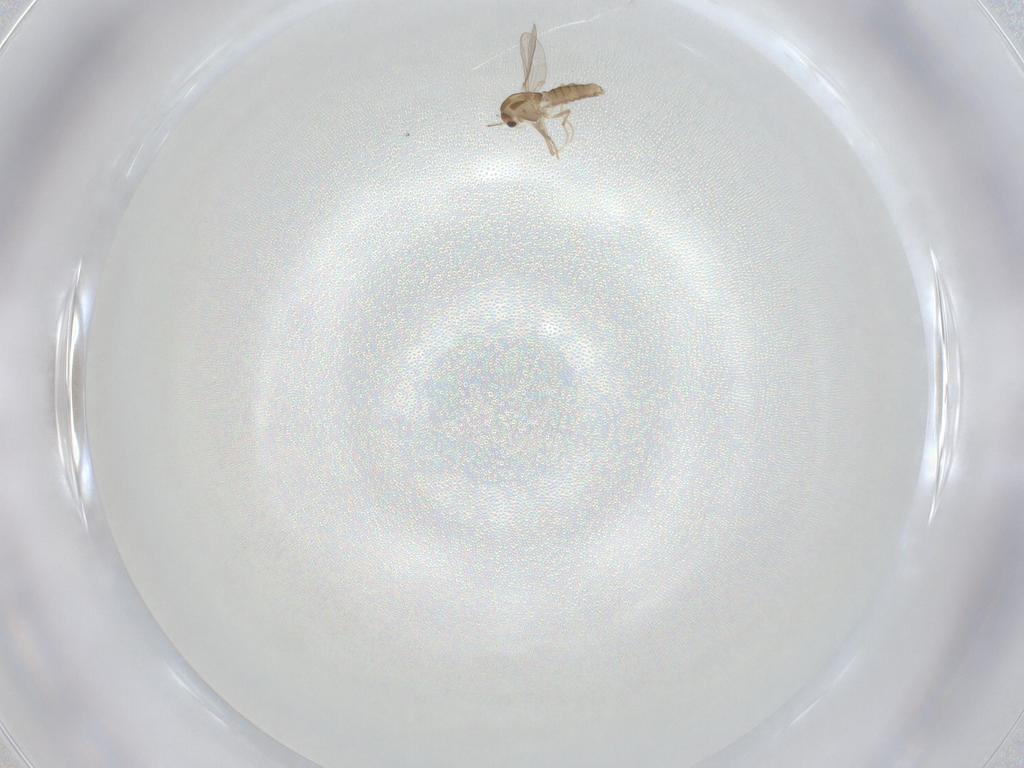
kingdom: Animalia
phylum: Arthropoda
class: Insecta
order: Diptera
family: Chironomidae
